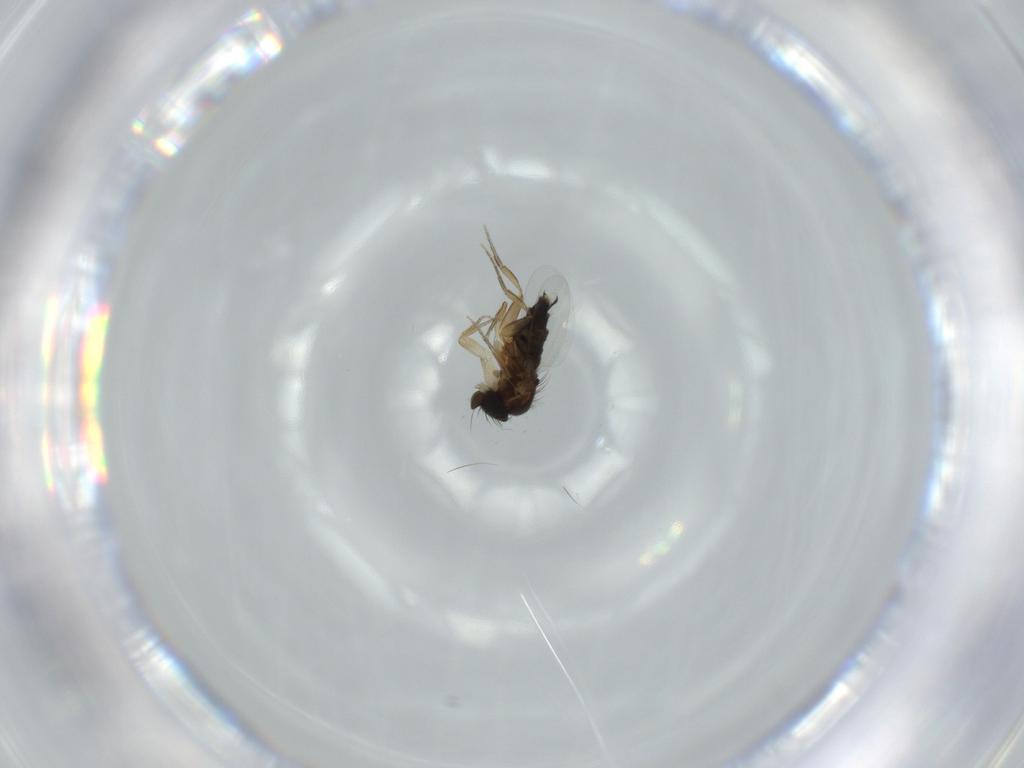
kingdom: Animalia
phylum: Arthropoda
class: Insecta
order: Diptera
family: Phoridae
